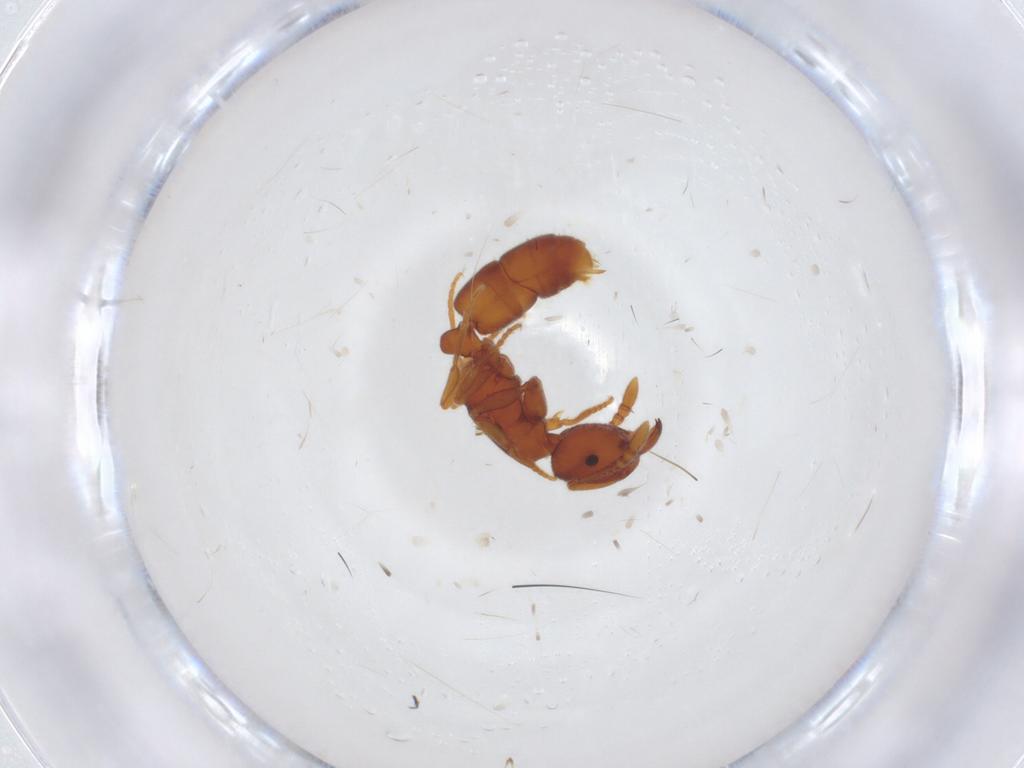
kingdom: Animalia
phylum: Arthropoda
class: Insecta
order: Hymenoptera
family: Formicidae
